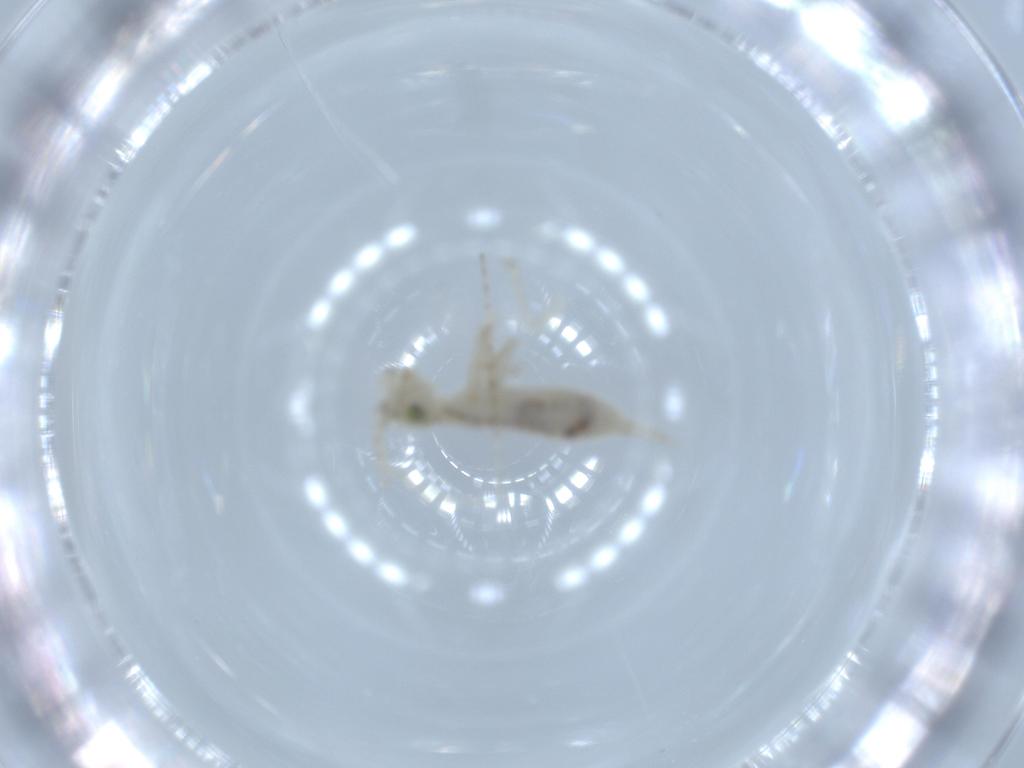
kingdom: Animalia
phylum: Arthropoda
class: Insecta
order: Orthoptera
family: Trigonidiidae
